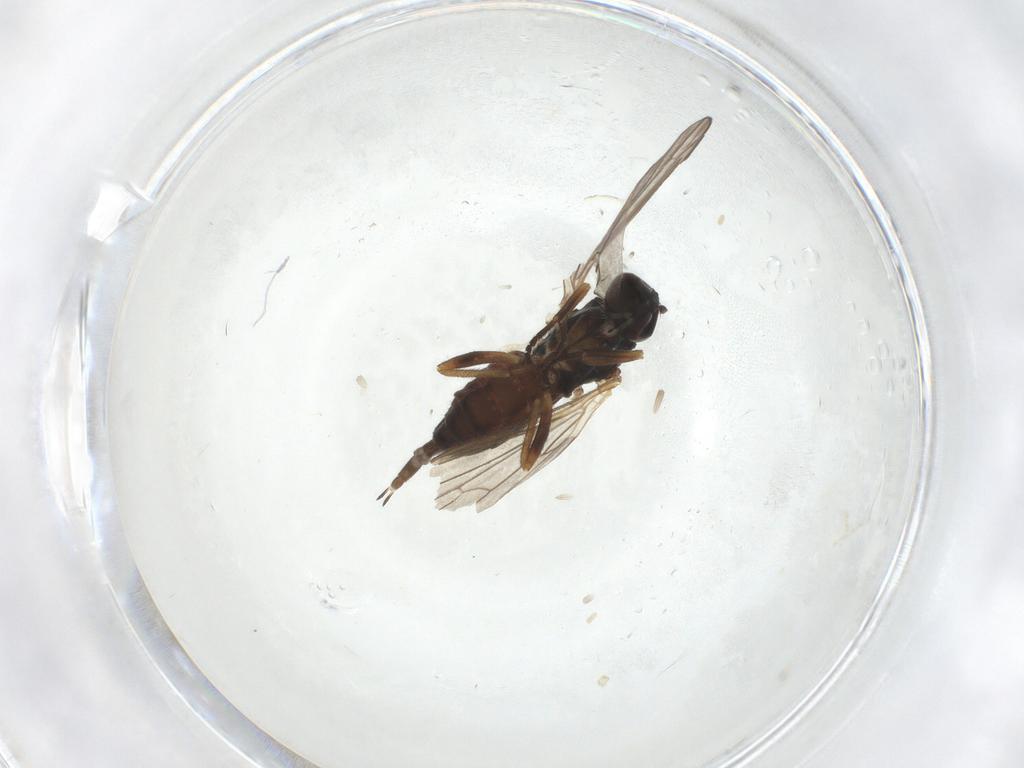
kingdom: Animalia
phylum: Arthropoda
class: Insecta
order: Diptera
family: Empididae
